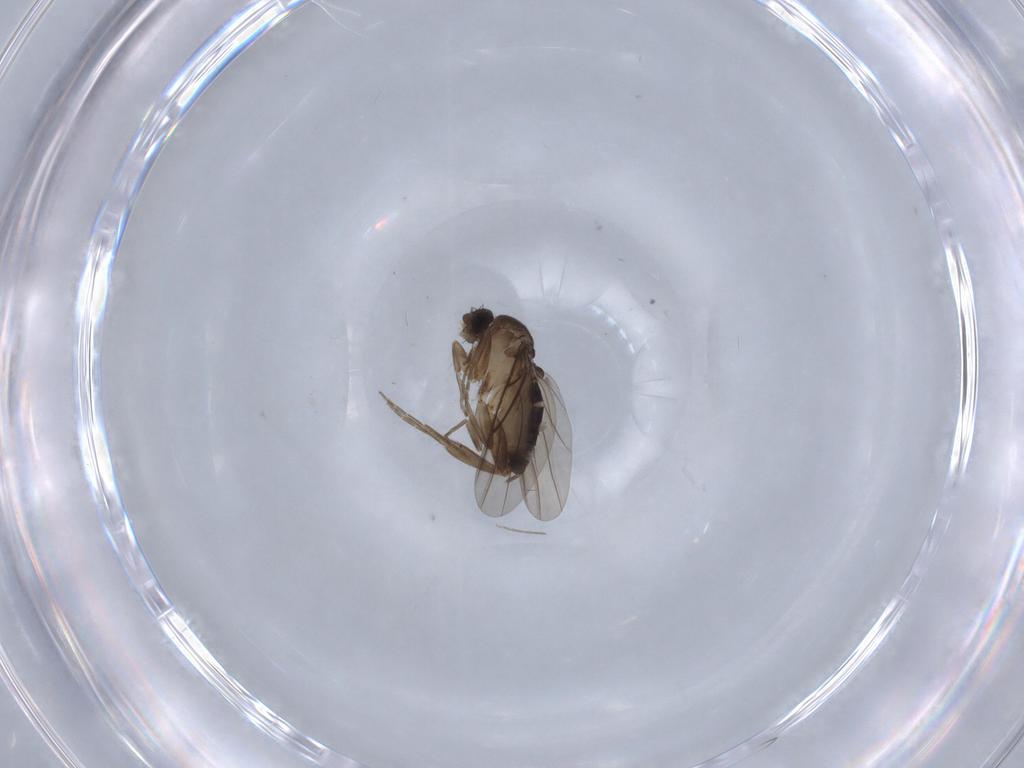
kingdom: Animalia
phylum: Arthropoda
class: Insecta
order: Diptera
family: Phoridae
